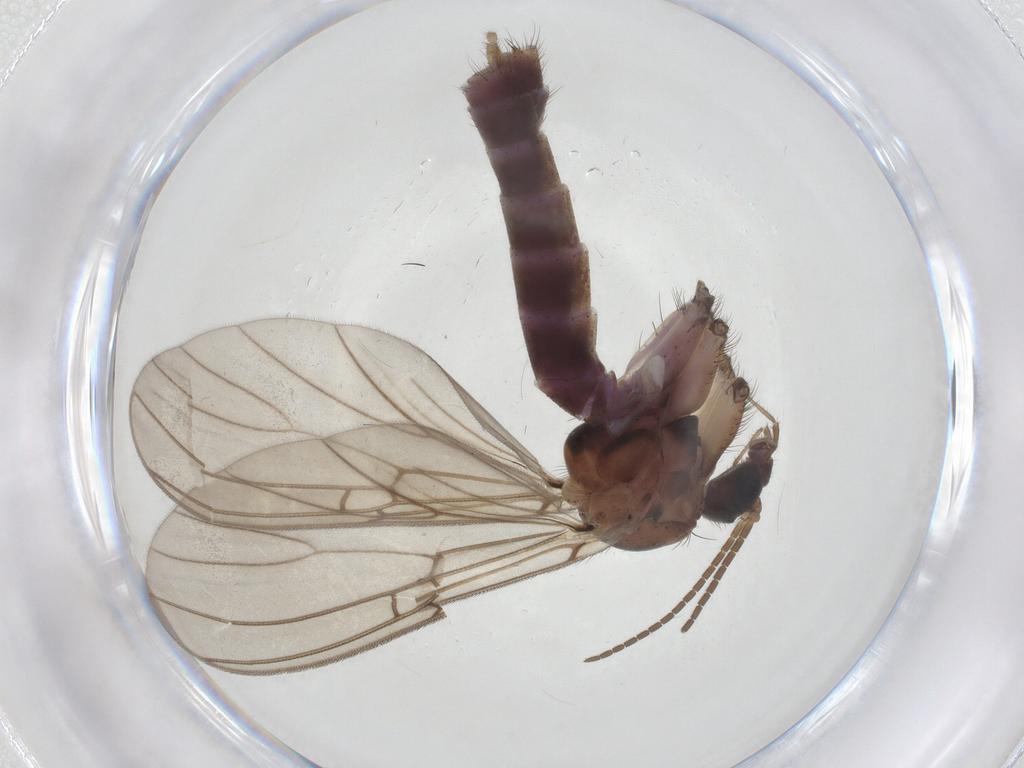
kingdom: Animalia
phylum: Arthropoda
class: Insecta
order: Diptera
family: Mycetophilidae
